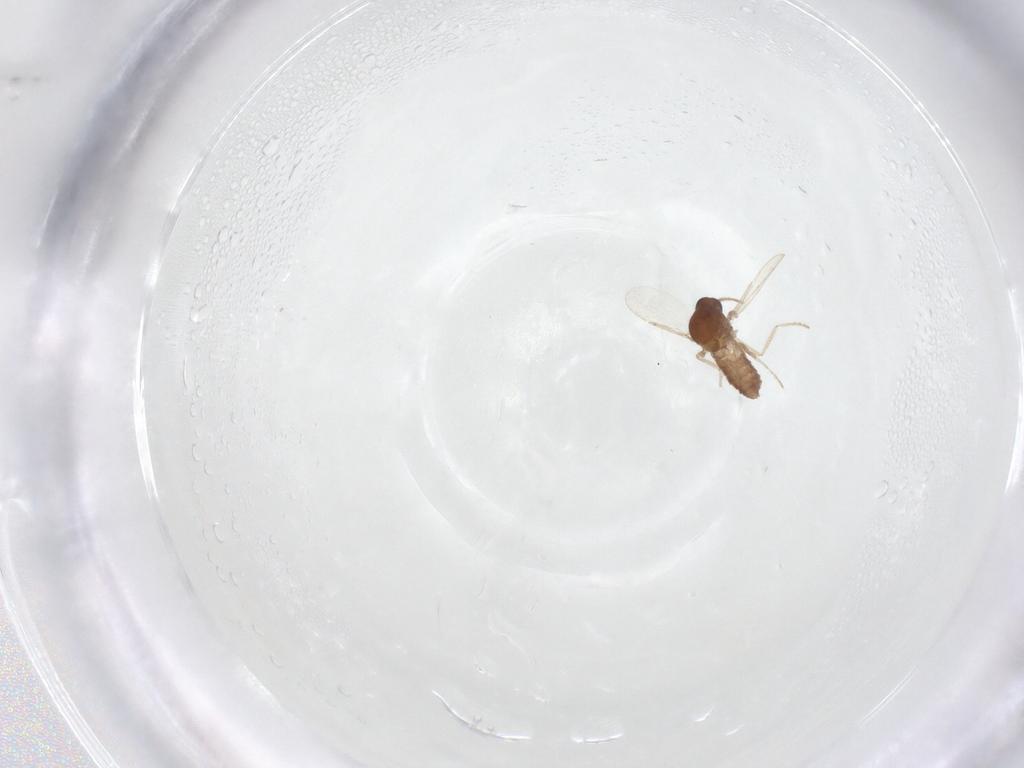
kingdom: Animalia
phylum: Arthropoda
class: Insecta
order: Diptera
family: Ceratopogonidae
